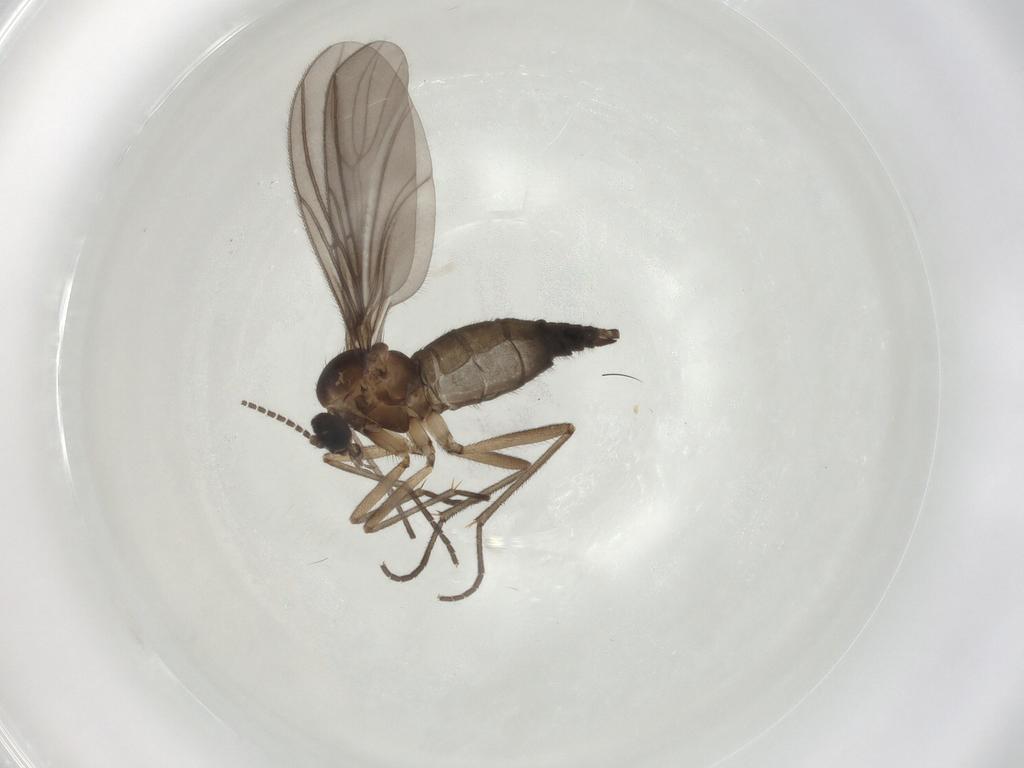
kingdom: Animalia
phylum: Arthropoda
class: Insecta
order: Diptera
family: Sciaridae
